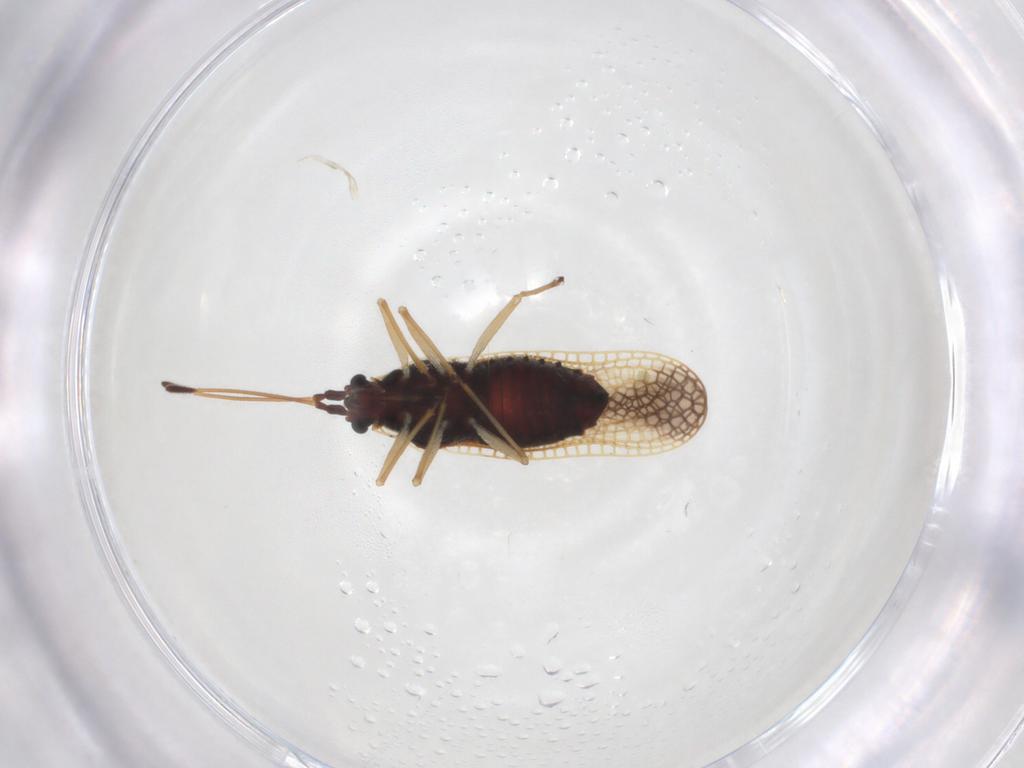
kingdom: Animalia
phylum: Arthropoda
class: Insecta
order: Hemiptera
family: Tingidae
